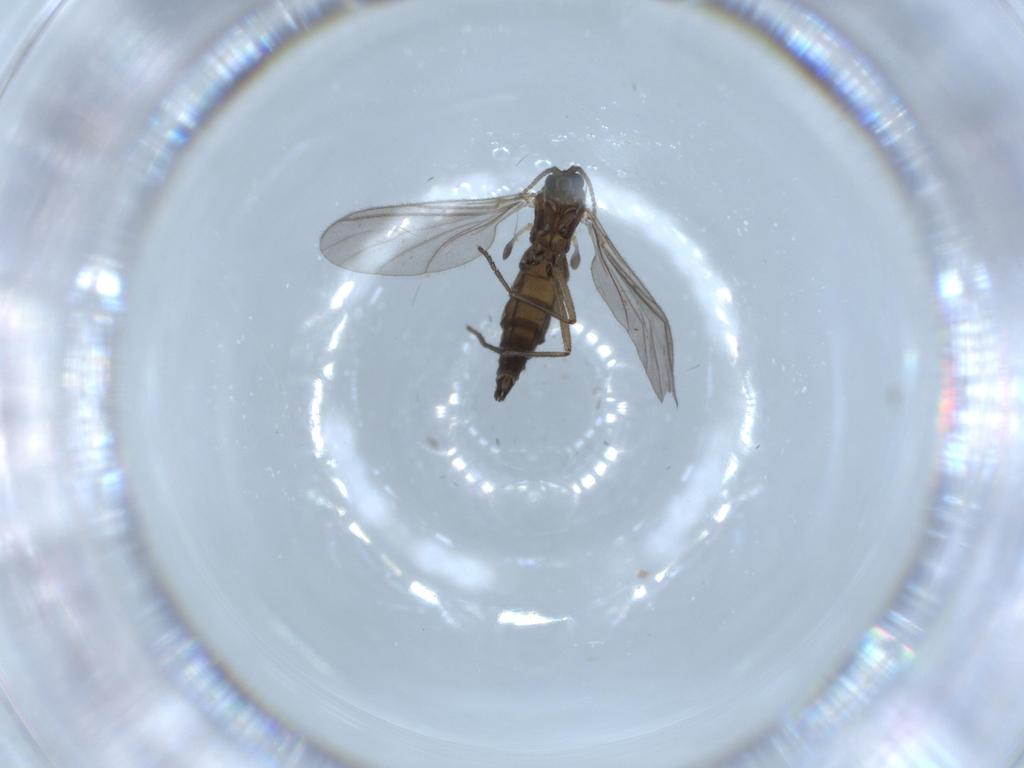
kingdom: Animalia
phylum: Arthropoda
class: Insecta
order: Diptera
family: Sciaridae
